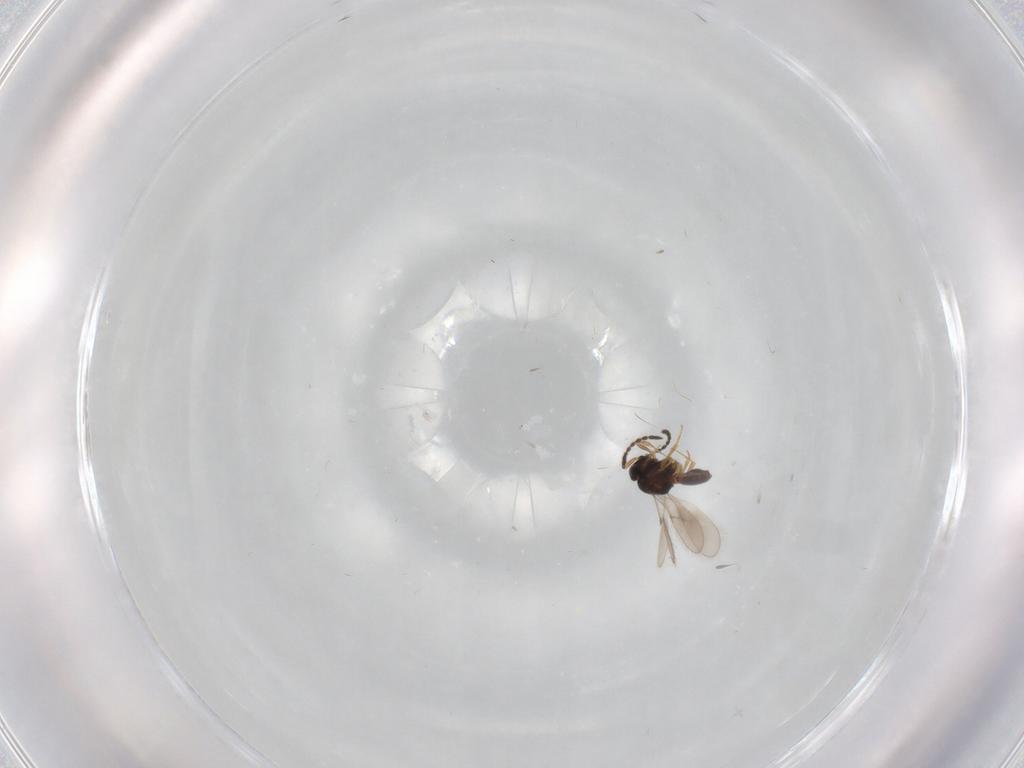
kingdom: Animalia
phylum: Arthropoda
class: Insecta
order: Hymenoptera
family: Scelionidae
